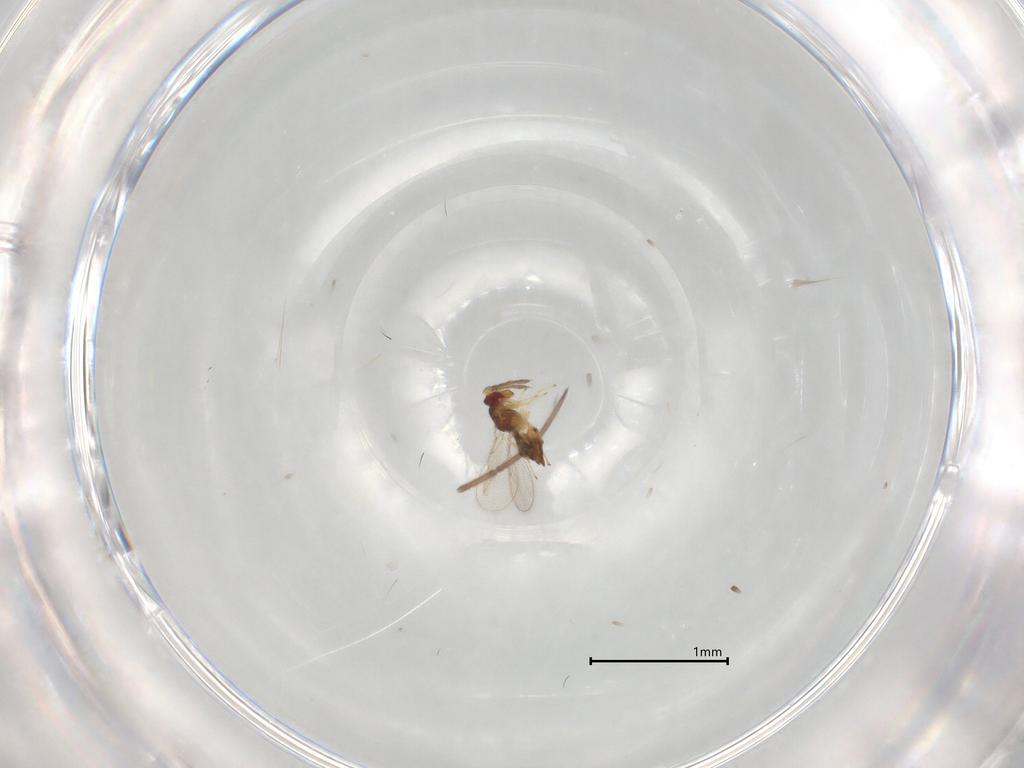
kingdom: Animalia
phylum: Arthropoda
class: Insecta
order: Hymenoptera
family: Eulophidae
